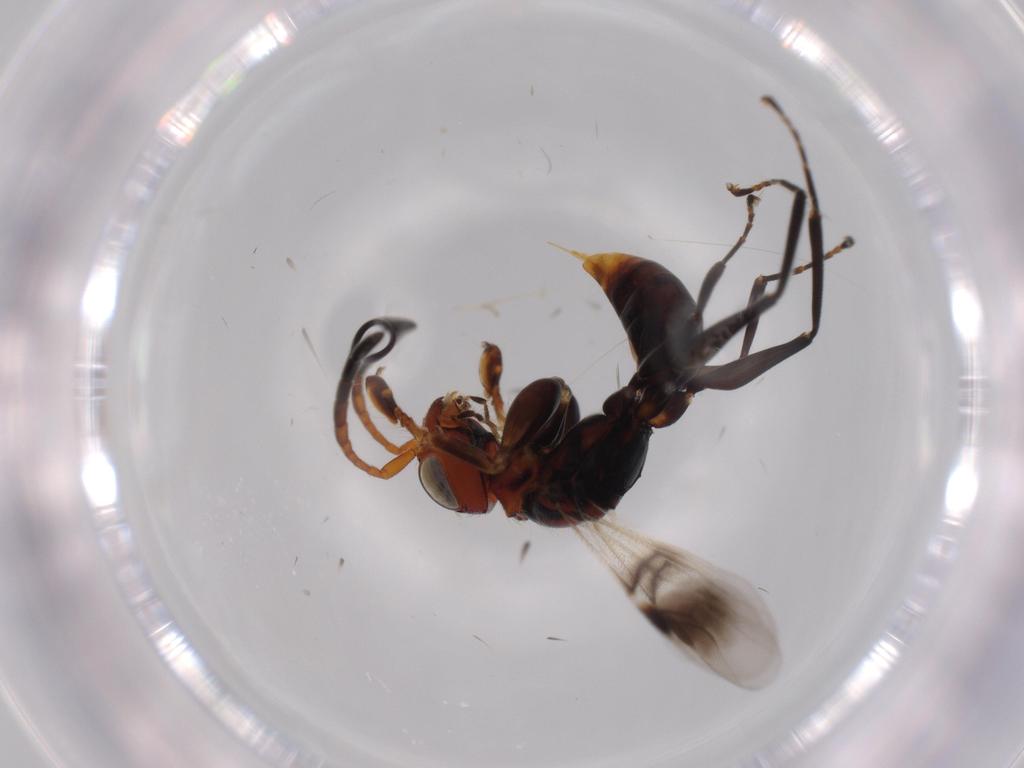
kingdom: Animalia
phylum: Arthropoda
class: Insecta
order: Hymenoptera
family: Dryinidae
